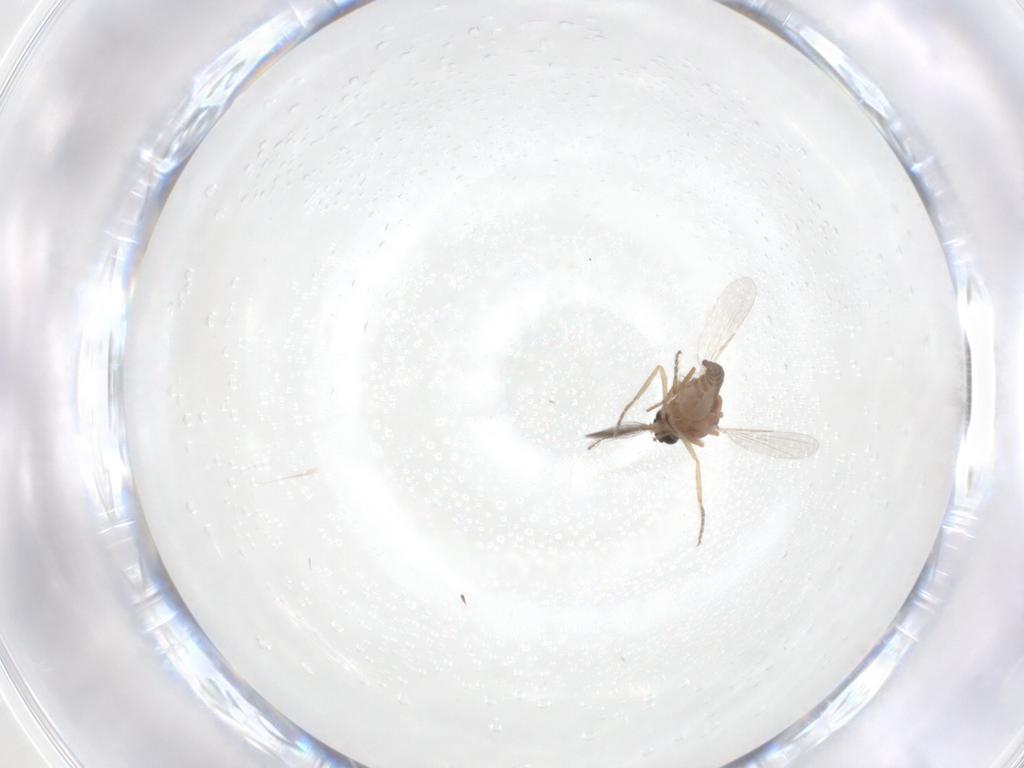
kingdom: Animalia
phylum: Arthropoda
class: Insecta
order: Diptera
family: Ceratopogonidae
